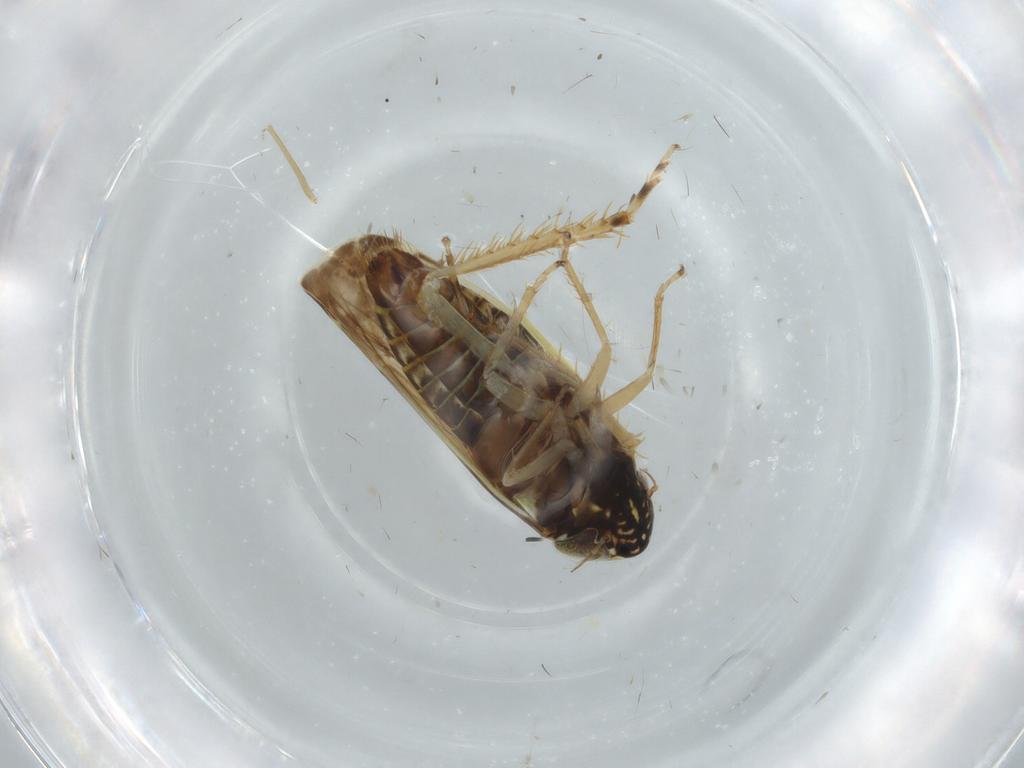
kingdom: Animalia
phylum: Arthropoda
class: Insecta
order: Hemiptera
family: Cicadellidae
